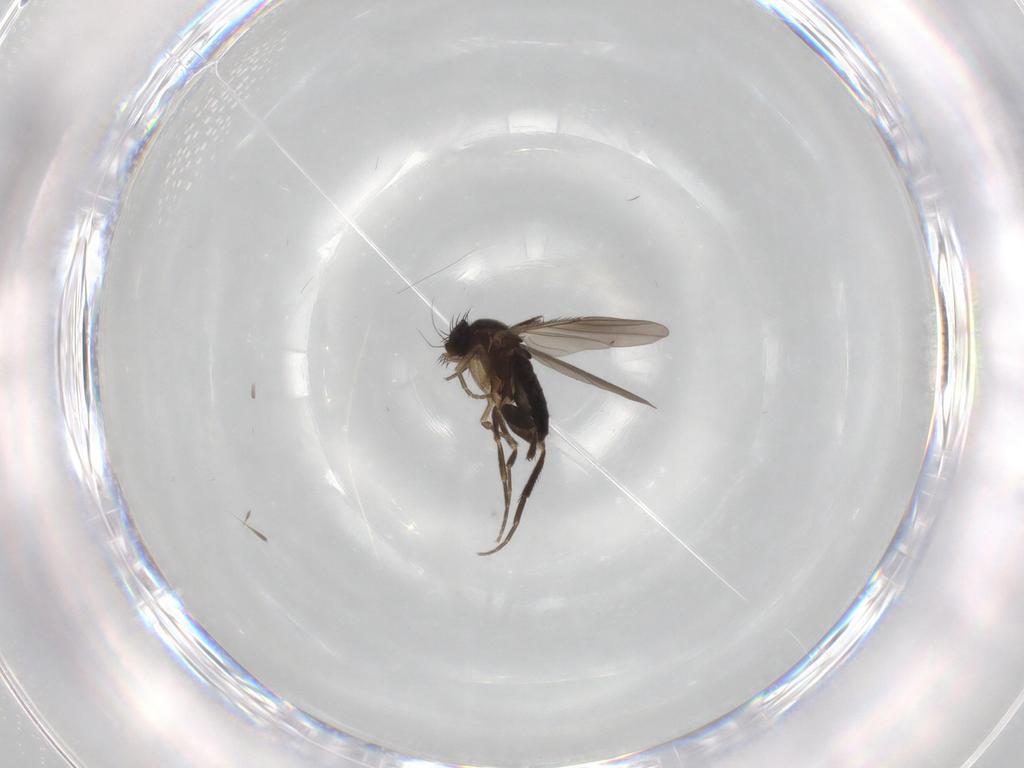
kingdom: Animalia
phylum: Arthropoda
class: Insecta
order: Diptera
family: Phoridae
